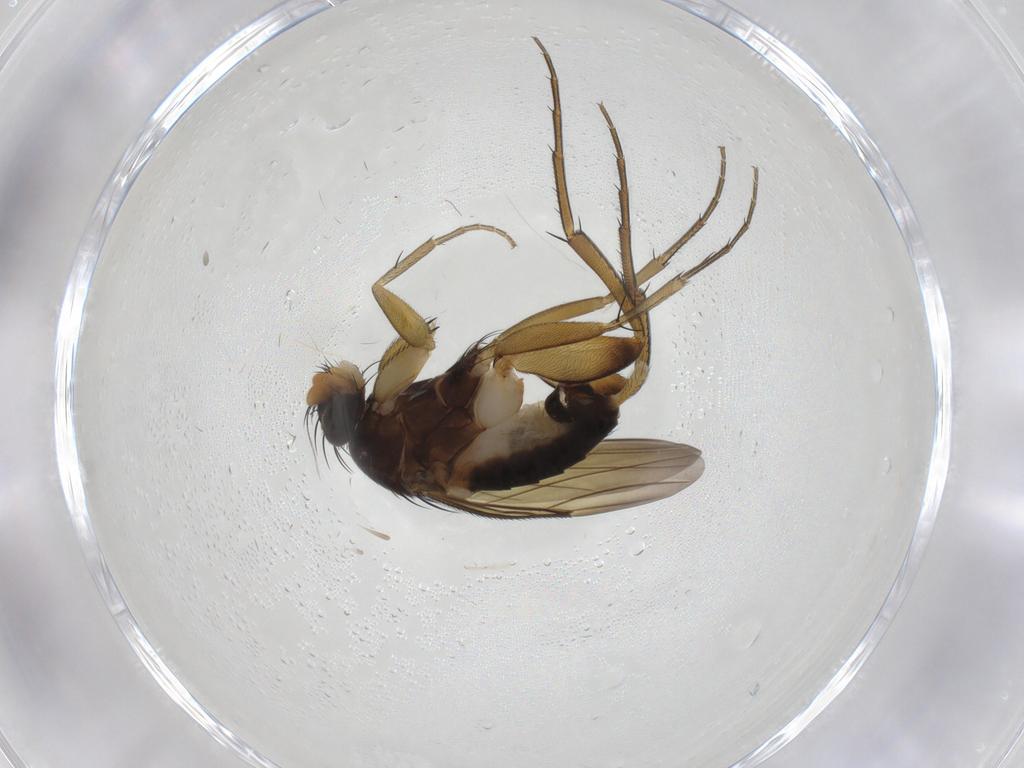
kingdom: Animalia
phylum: Arthropoda
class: Insecta
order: Diptera
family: Phoridae
